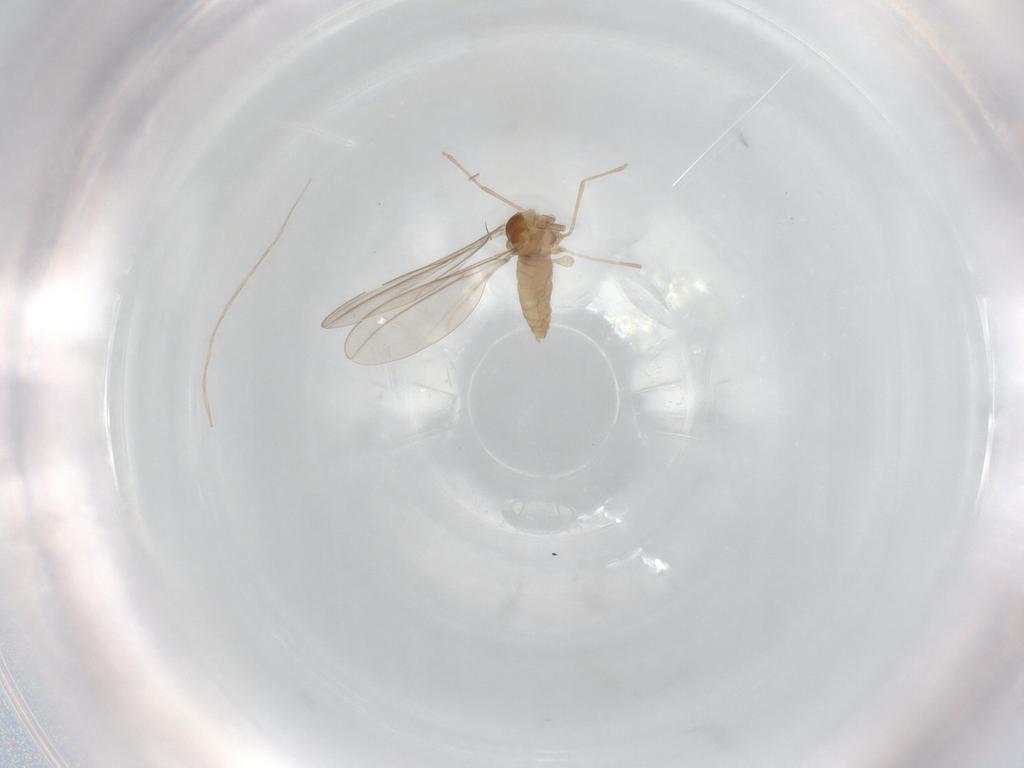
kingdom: Animalia
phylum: Arthropoda
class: Insecta
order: Diptera
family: Cecidomyiidae
